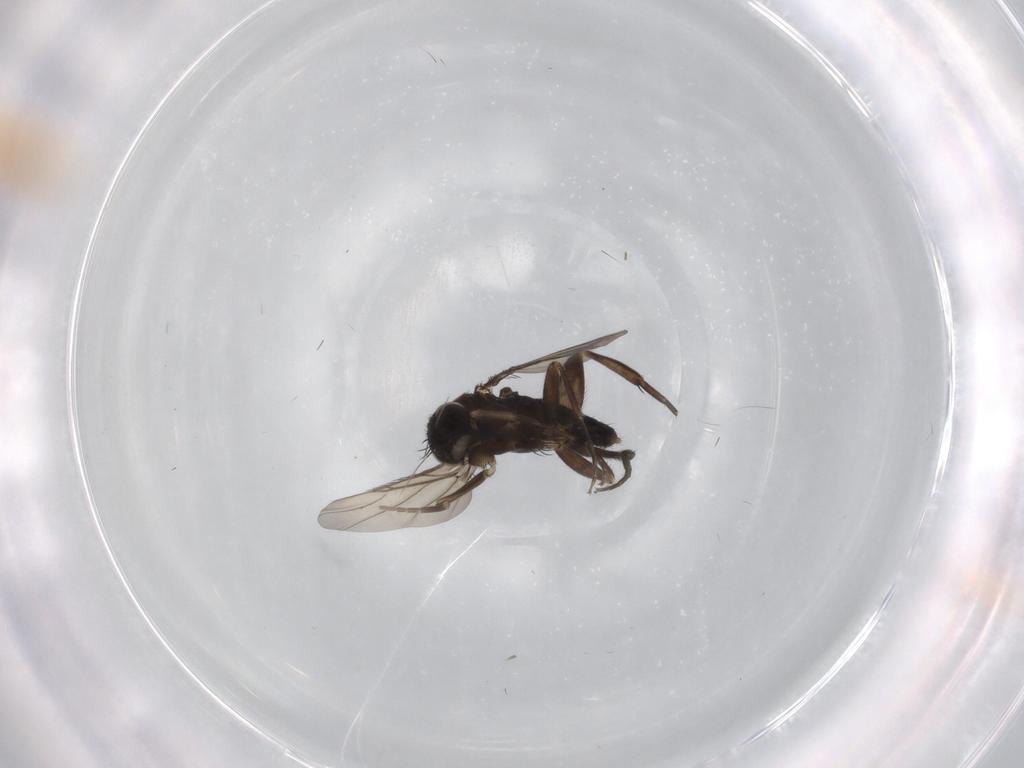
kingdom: Animalia
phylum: Arthropoda
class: Insecta
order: Diptera
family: Phoridae
